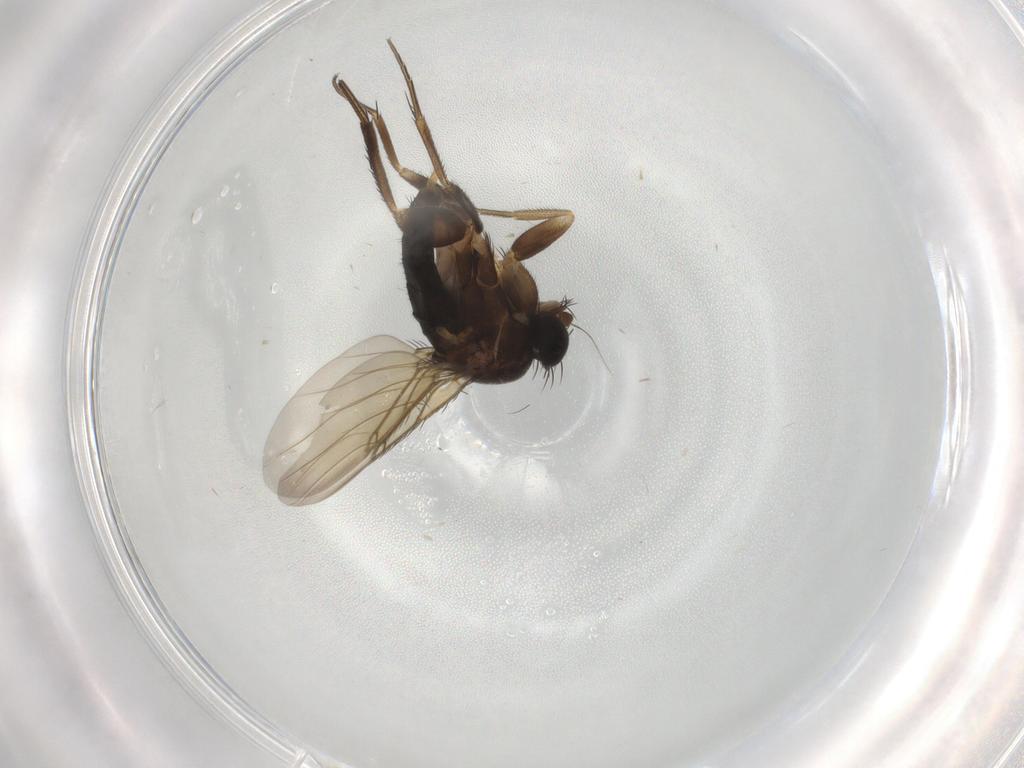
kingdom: Animalia
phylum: Arthropoda
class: Insecta
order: Diptera
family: Phoridae
